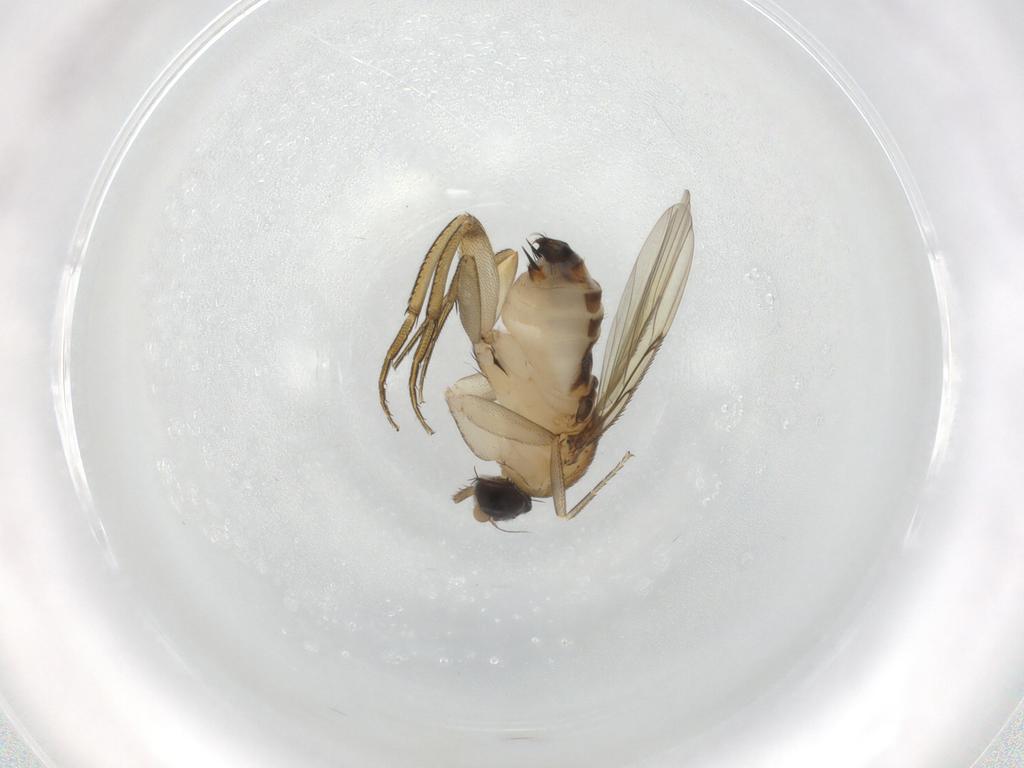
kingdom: Animalia
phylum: Arthropoda
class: Insecta
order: Diptera
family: Phoridae
